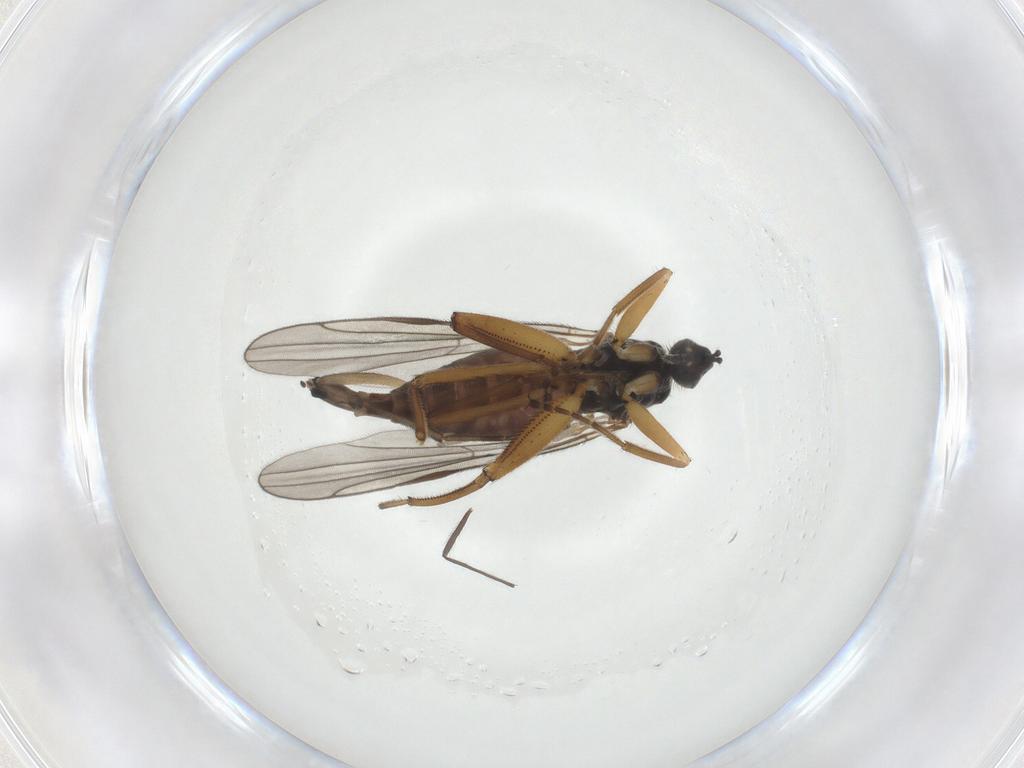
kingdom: Animalia
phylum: Arthropoda
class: Insecta
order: Diptera
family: Hybotidae
